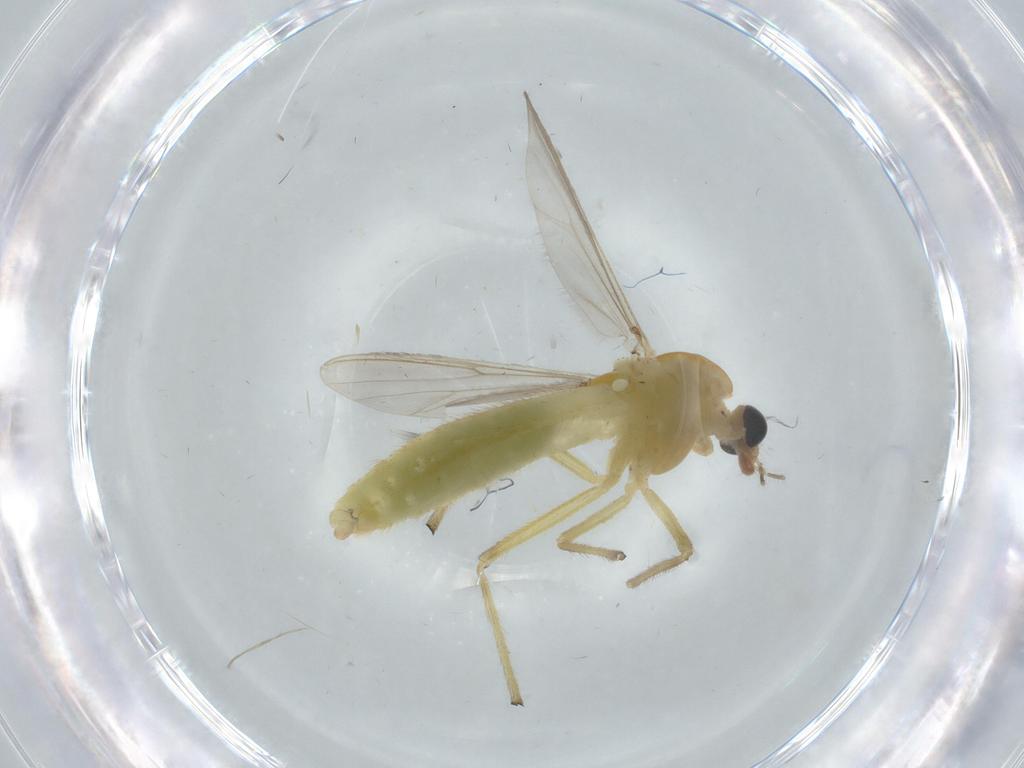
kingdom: Animalia
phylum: Arthropoda
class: Insecta
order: Diptera
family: Chironomidae
